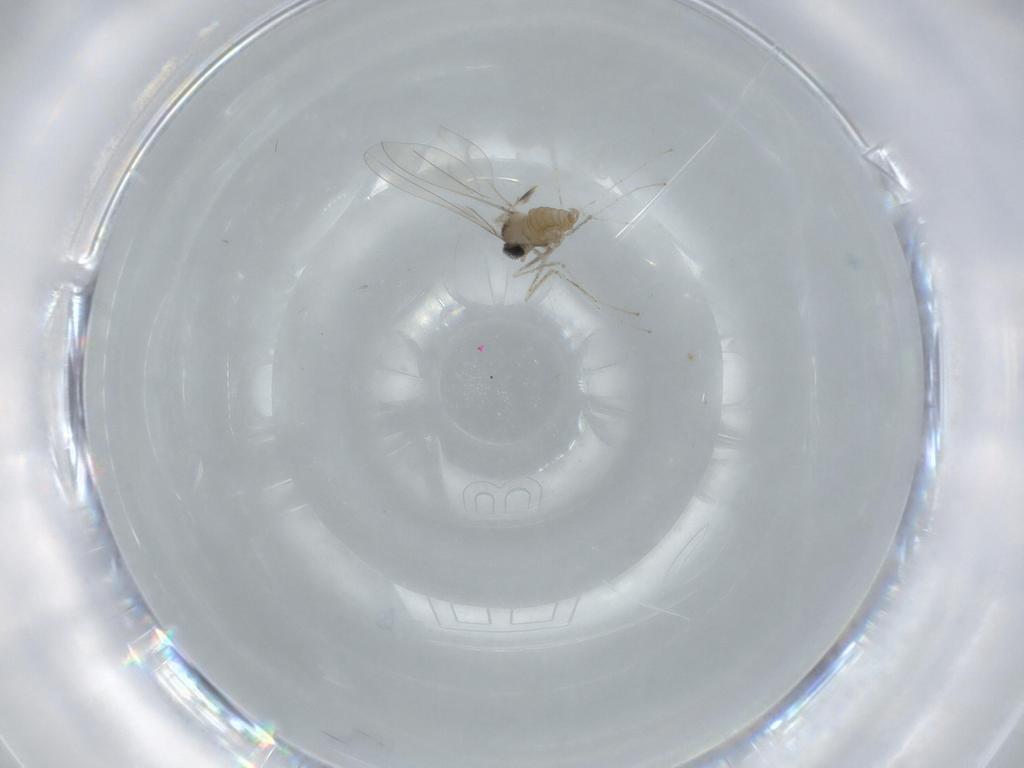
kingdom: Animalia
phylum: Arthropoda
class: Insecta
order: Diptera
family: Cecidomyiidae
